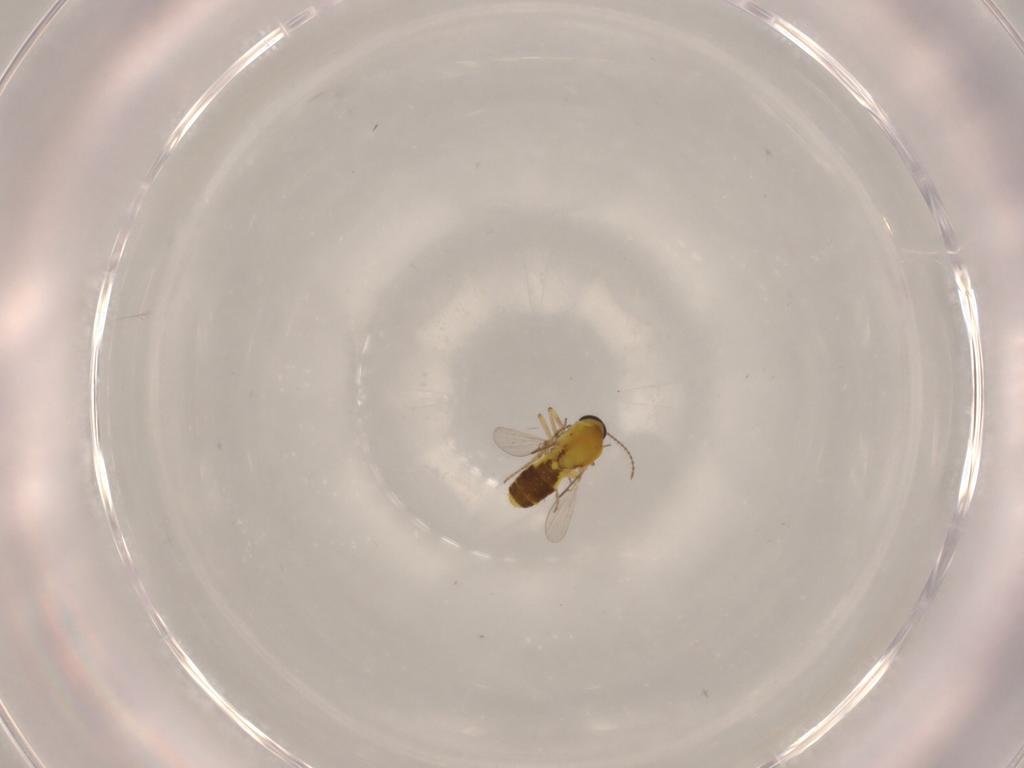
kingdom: Animalia
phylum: Arthropoda
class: Insecta
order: Diptera
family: Ceratopogonidae
